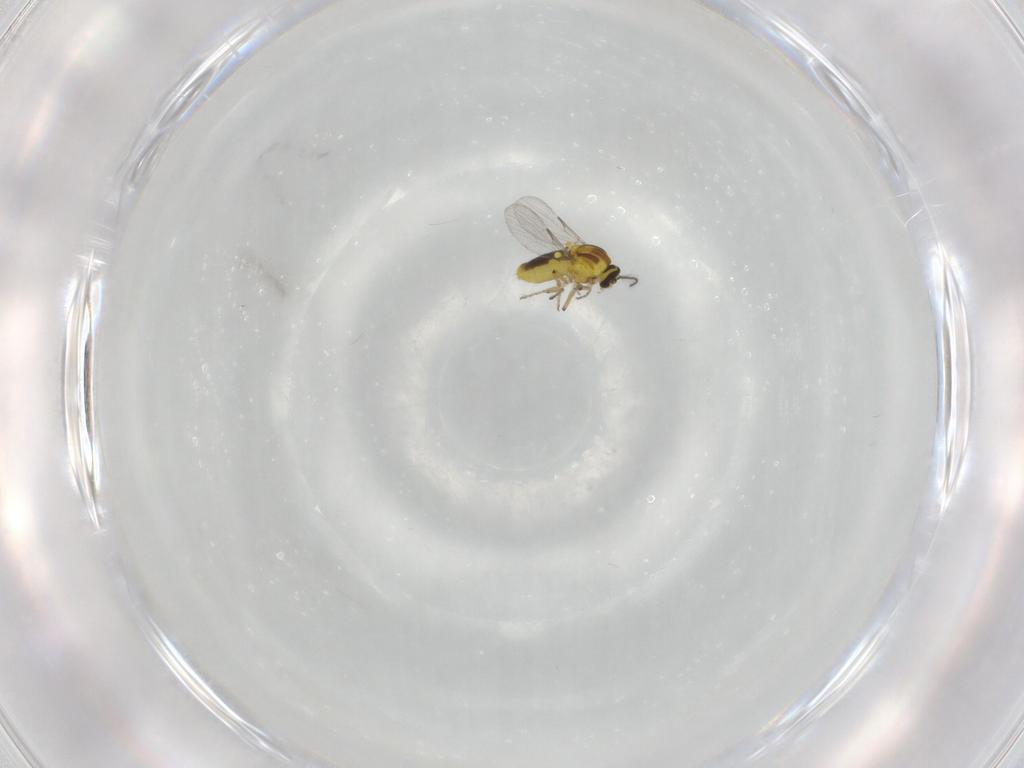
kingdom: Animalia
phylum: Arthropoda
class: Insecta
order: Diptera
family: Ceratopogonidae
